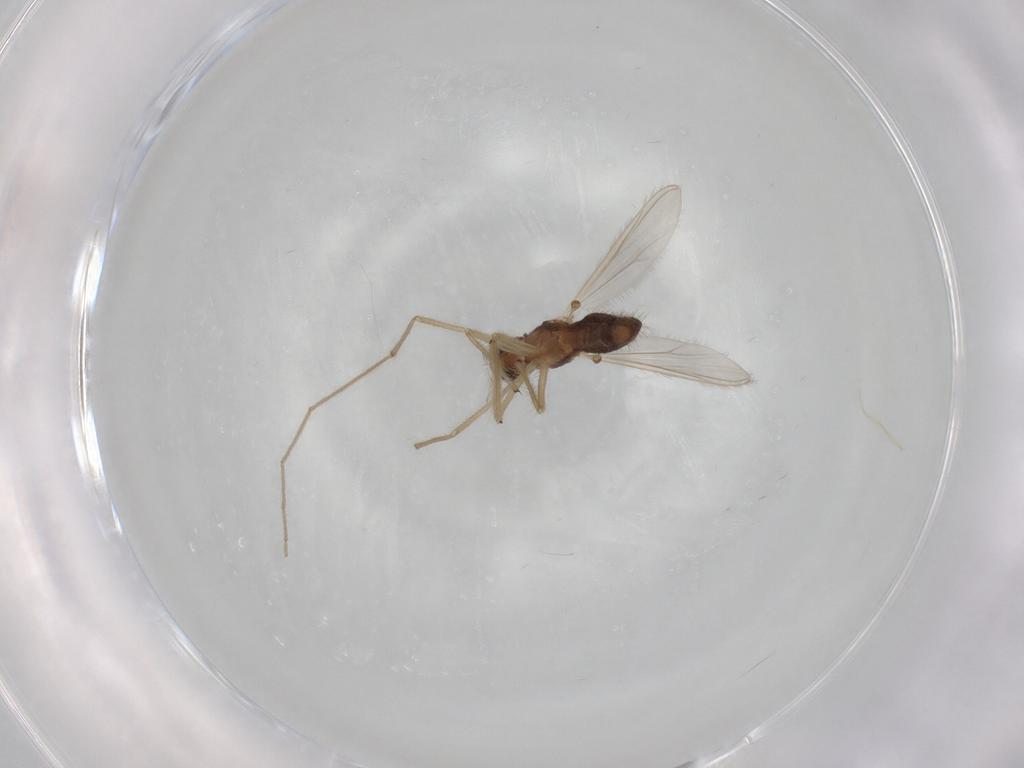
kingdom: Animalia
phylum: Arthropoda
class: Insecta
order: Diptera
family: Chironomidae
